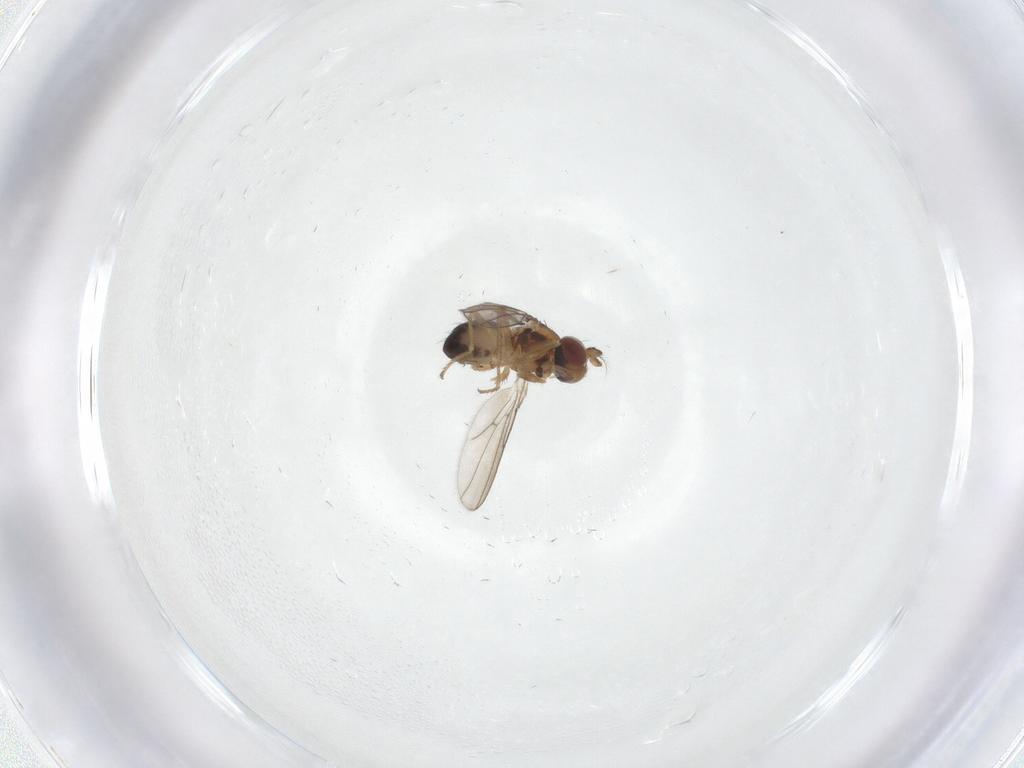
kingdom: Animalia
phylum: Arthropoda
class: Insecta
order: Diptera
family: Ephydridae
